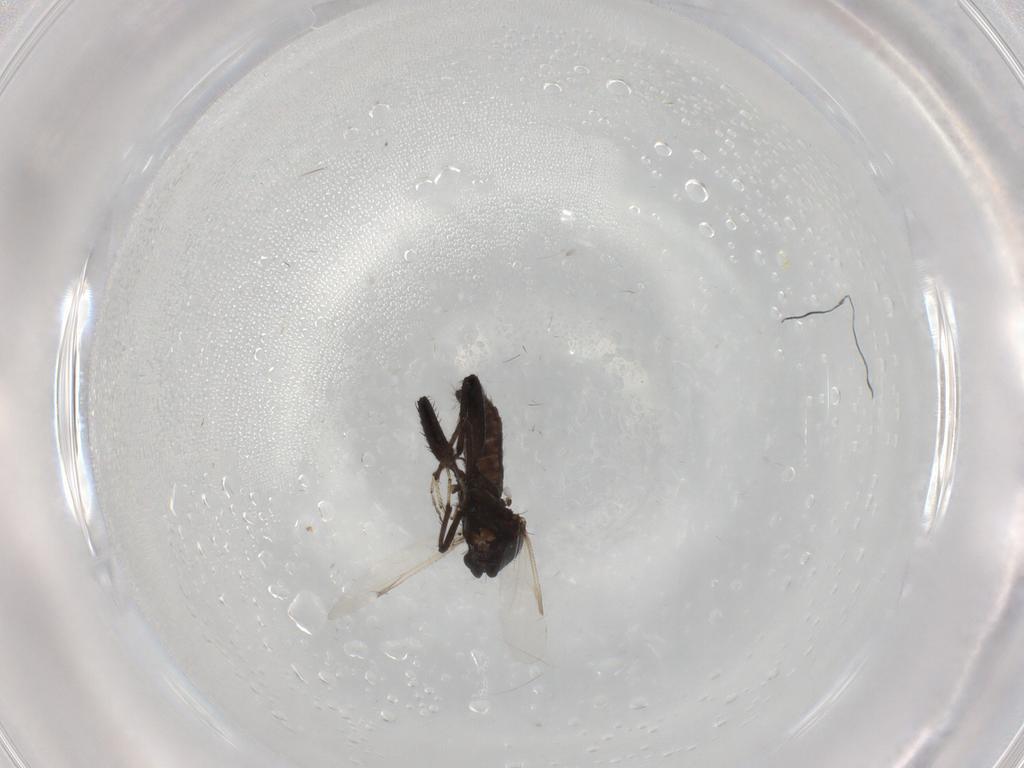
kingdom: Animalia
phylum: Arthropoda
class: Insecta
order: Diptera
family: Ceratopogonidae
